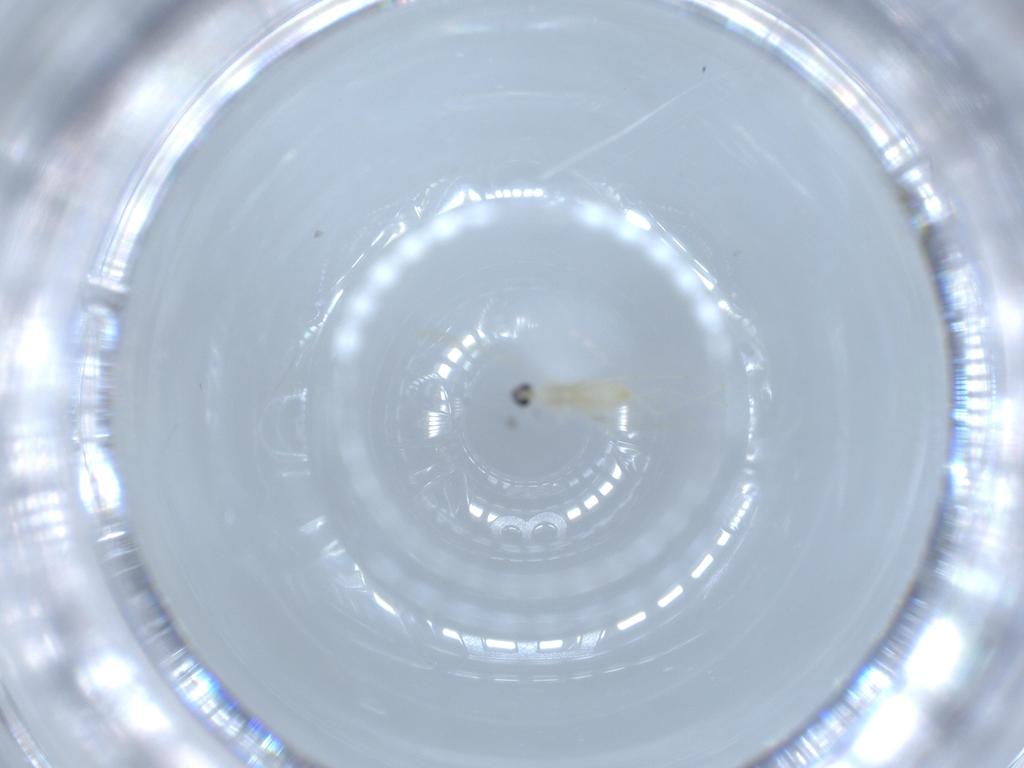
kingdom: Animalia
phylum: Arthropoda
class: Insecta
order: Diptera
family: Cecidomyiidae
